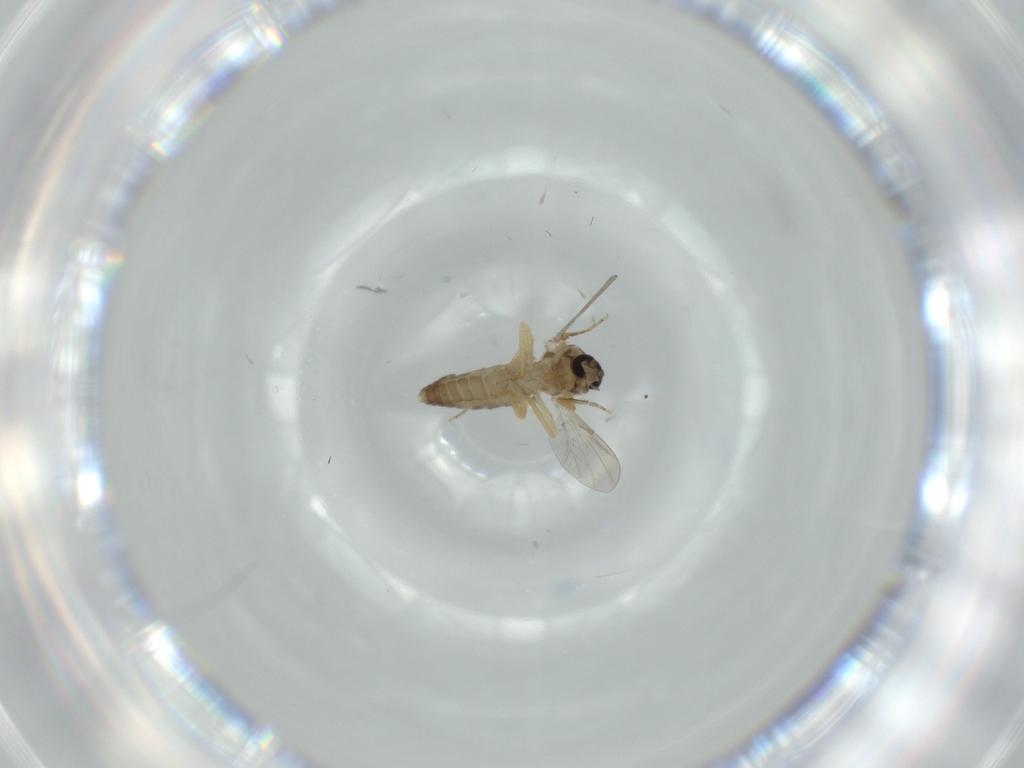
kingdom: Animalia
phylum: Arthropoda
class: Insecta
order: Diptera
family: Ceratopogonidae
